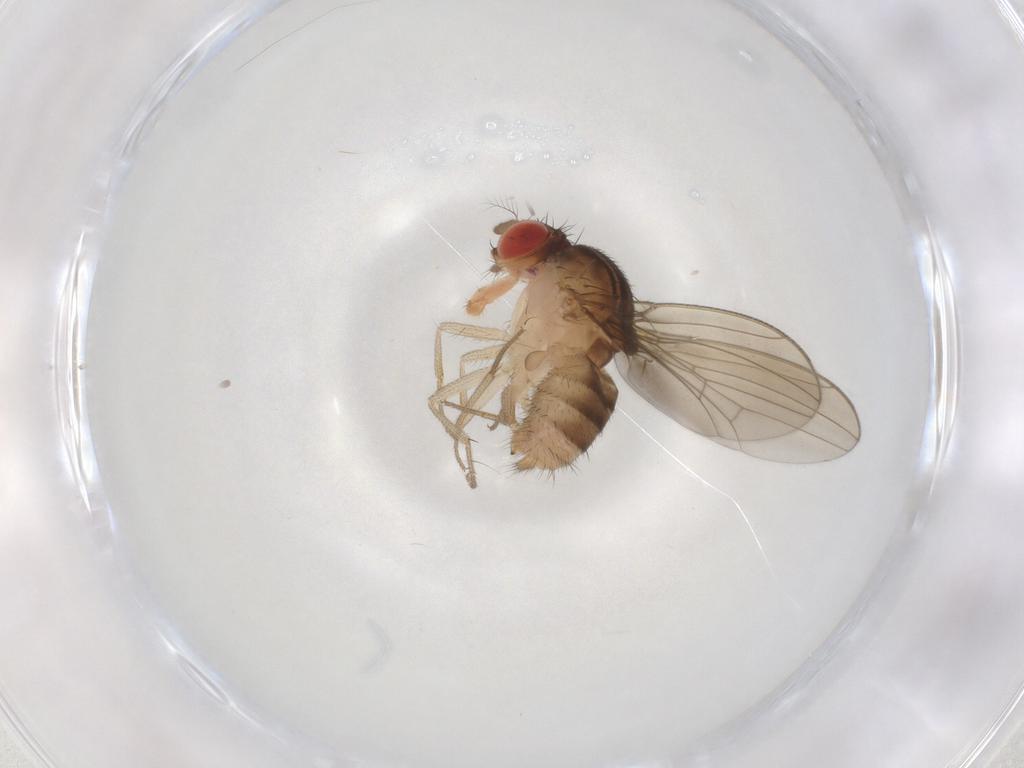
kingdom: Animalia
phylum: Arthropoda
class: Insecta
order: Diptera
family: Drosophilidae
